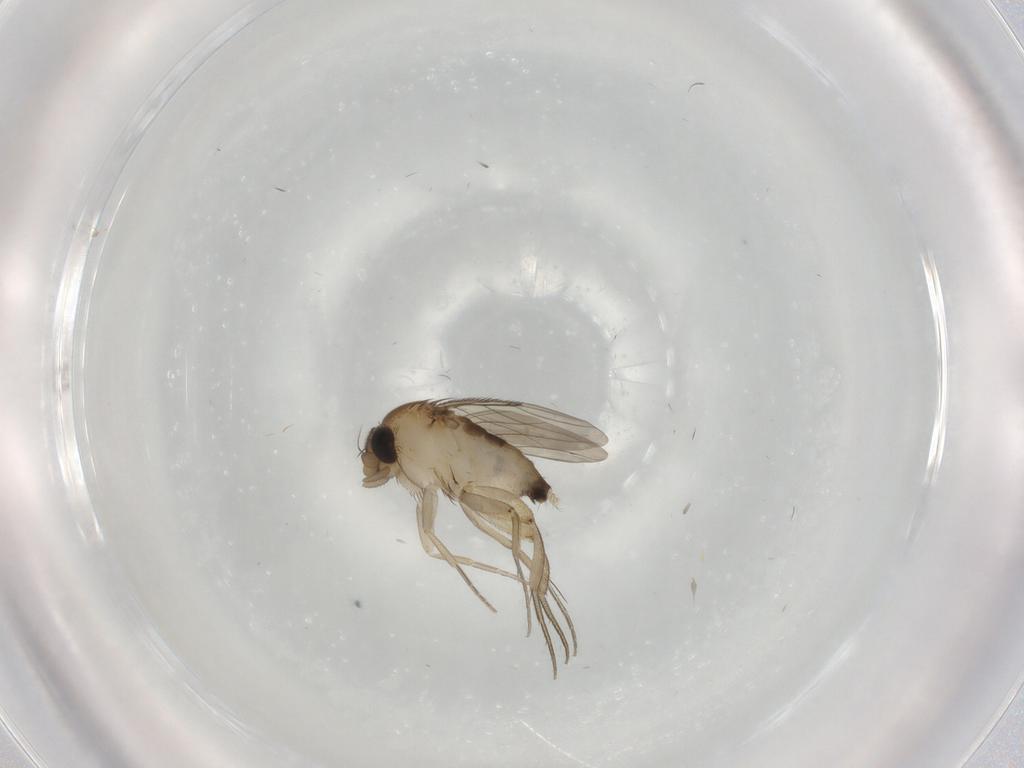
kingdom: Animalia
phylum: Arthropoda
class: Insecta
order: Diptera
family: Phoridae
